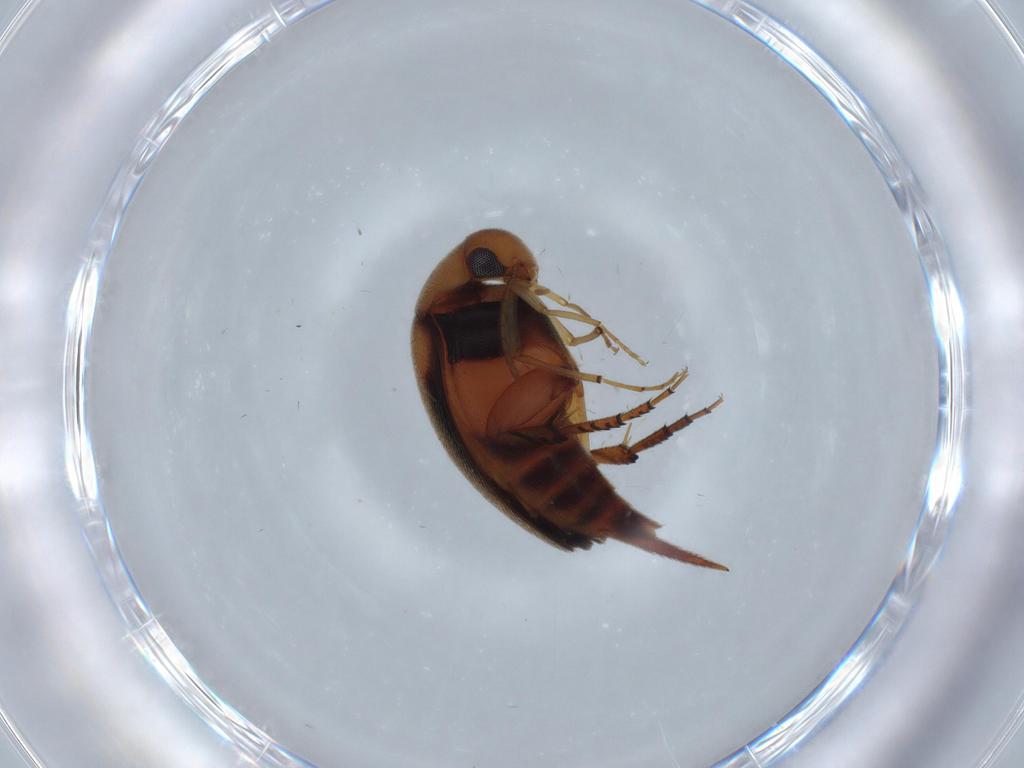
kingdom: Animalia
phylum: Arthropoda
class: Insecta
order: Coleoptera
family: Mordellidae
